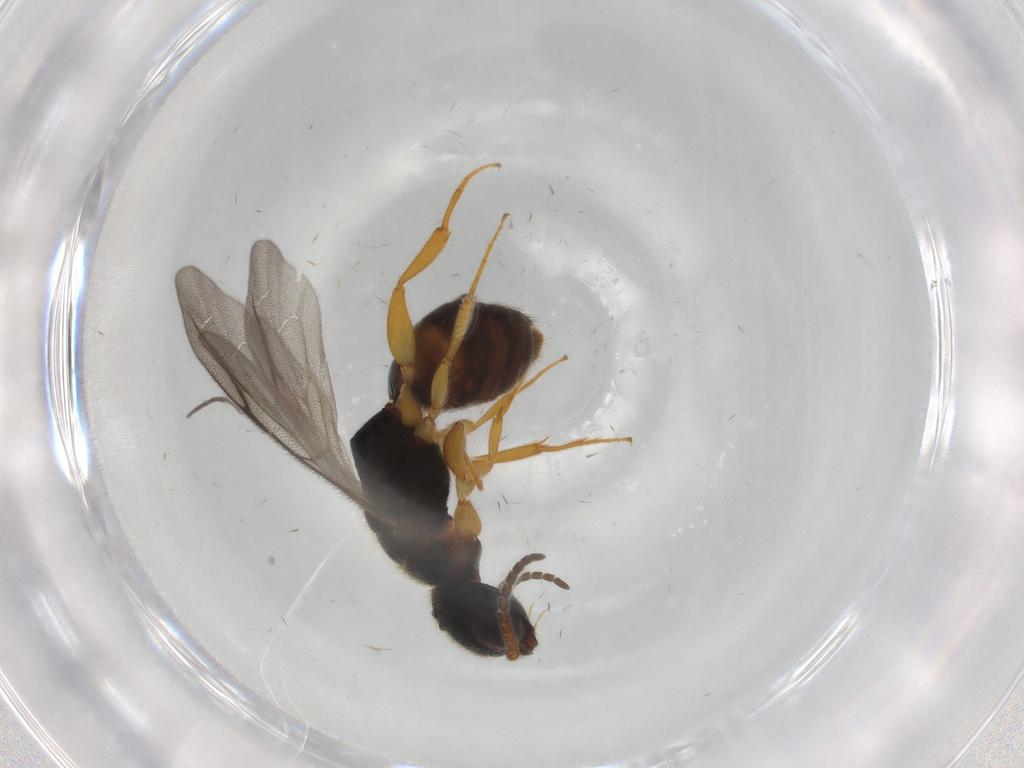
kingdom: Animalia
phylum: Arthropoda
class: Insecta
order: Hymenoptera
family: Bethylidae
